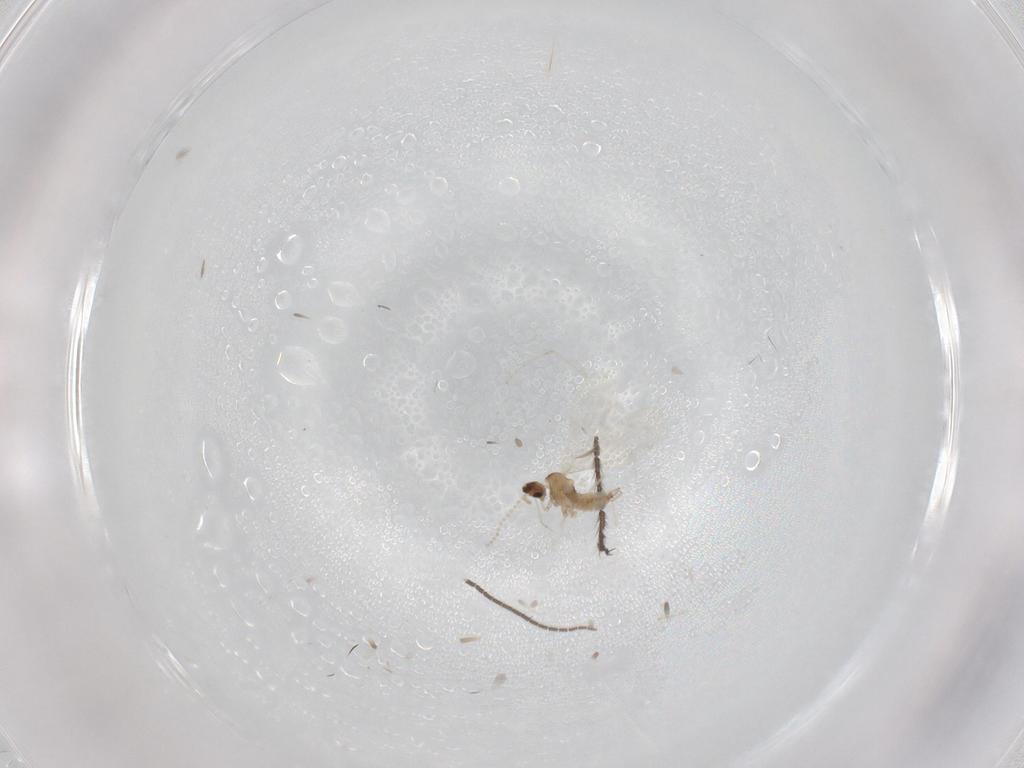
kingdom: Animalia
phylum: Arthropoda
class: Insecta
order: Diptera
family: Sciaridae
